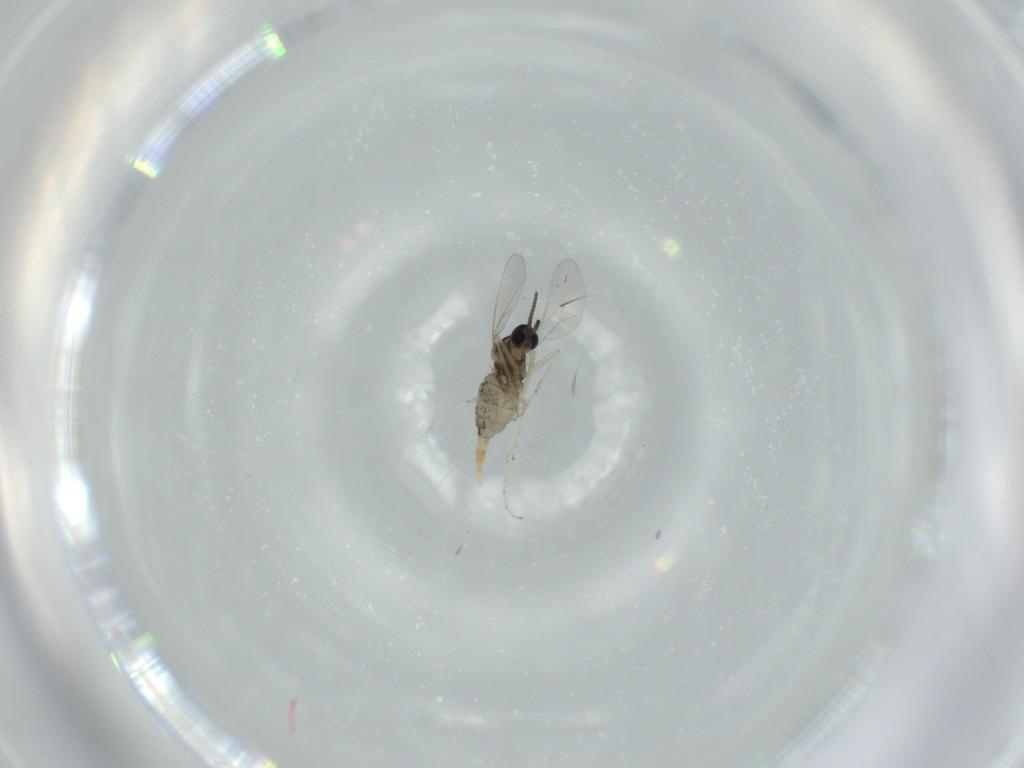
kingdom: Animalia
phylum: Arthropoda
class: Insecta
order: Diptera
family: Cecidomyiidae
